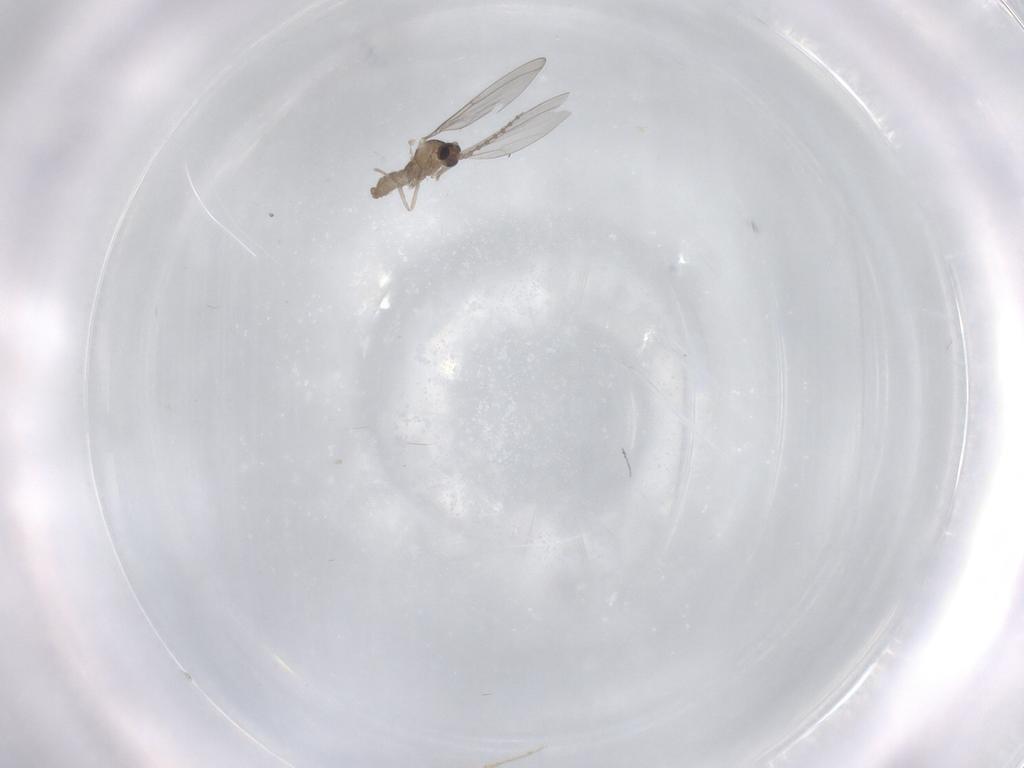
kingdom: Animalia
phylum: Arthropoda
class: Insecta
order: Diptera
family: Cecidomyiidae
